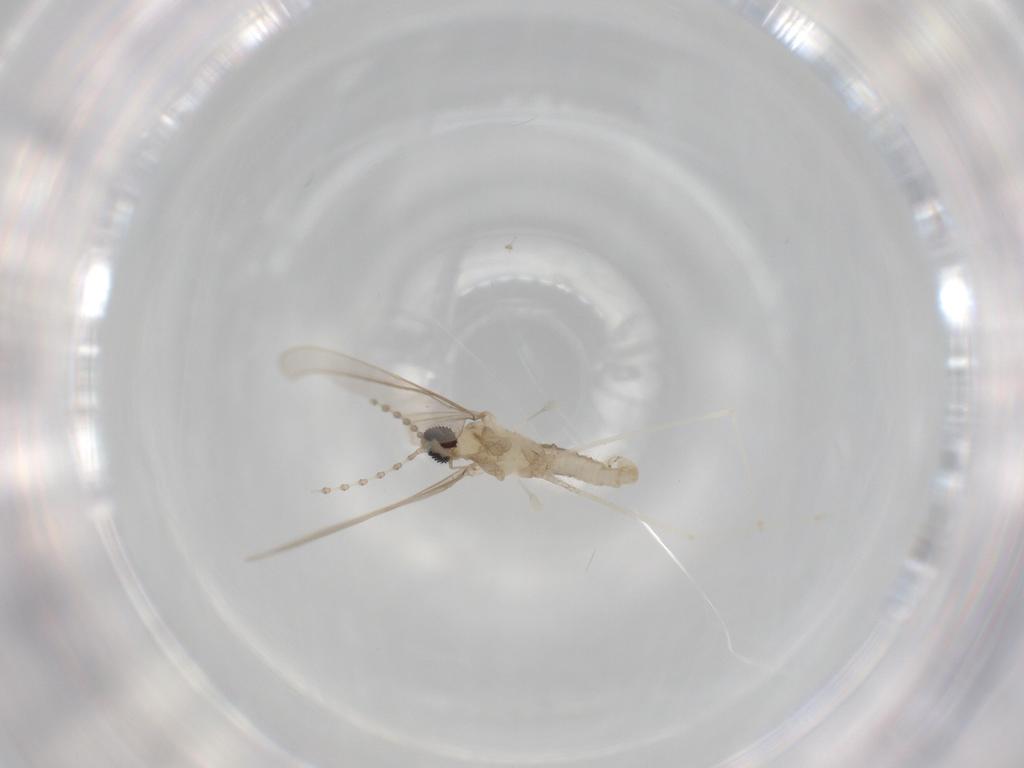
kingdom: Animalia
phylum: Arthropoda
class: Insecta
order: Diptera
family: Cecidomyiidae
